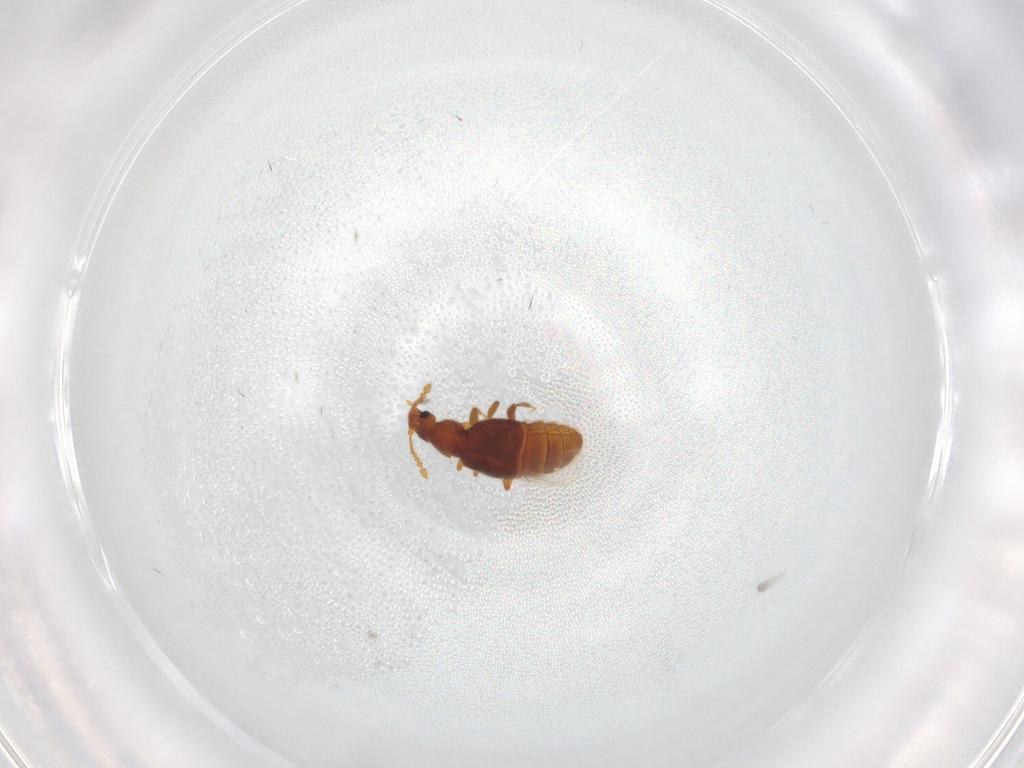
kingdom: Animalia
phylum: Arthropoda
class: Insecta
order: Coleoptera
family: Staphylinidae
